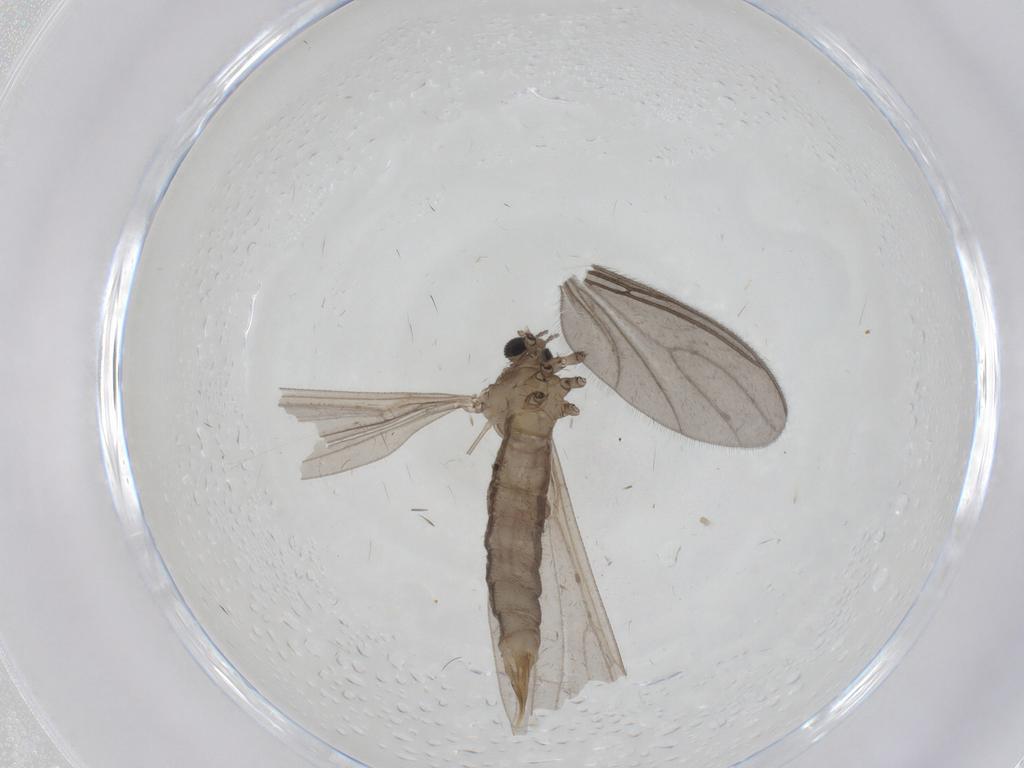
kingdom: Animalia
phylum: Arthropoda
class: Insecta
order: Diptera
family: Limoniidae
